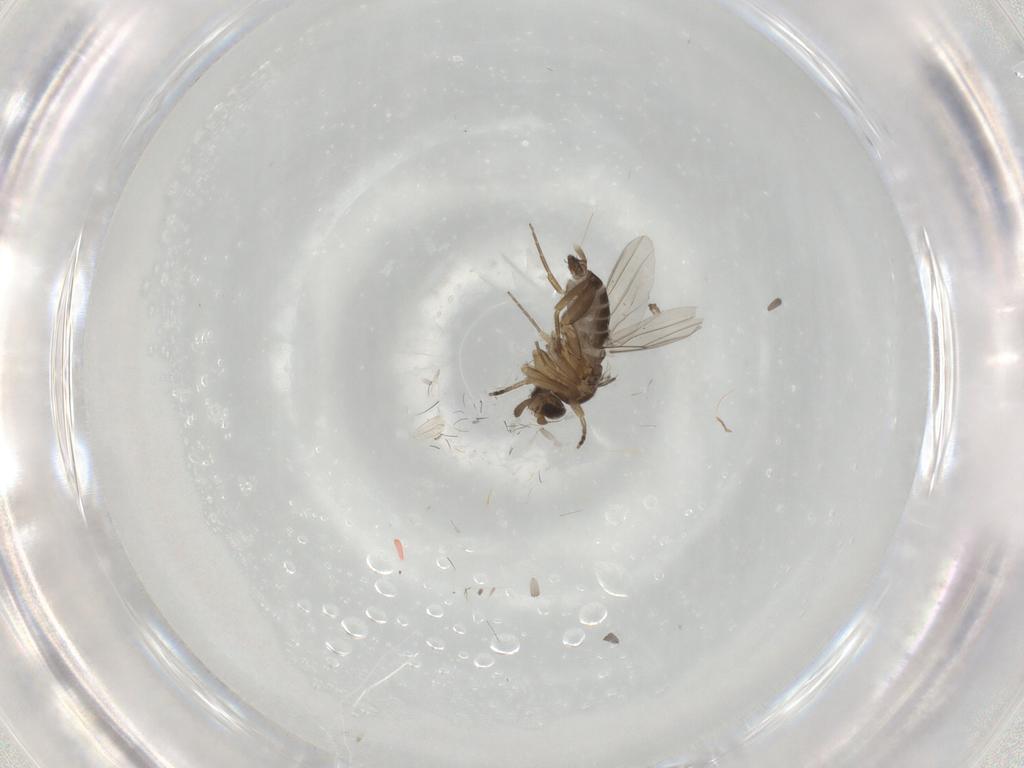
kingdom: Animalia
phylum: Arthropoda
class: Insecta
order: Diptera
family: Phoridae
